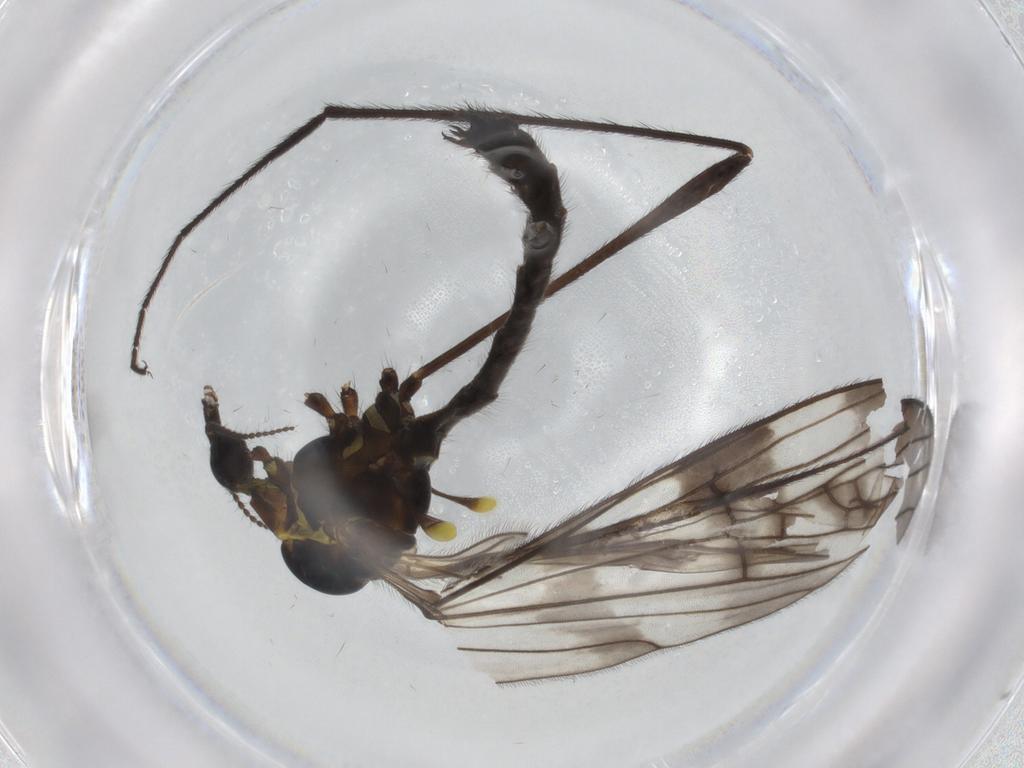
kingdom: Animalia
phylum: Arthropoda
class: Insecta
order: Diptera
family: Limoniidae
